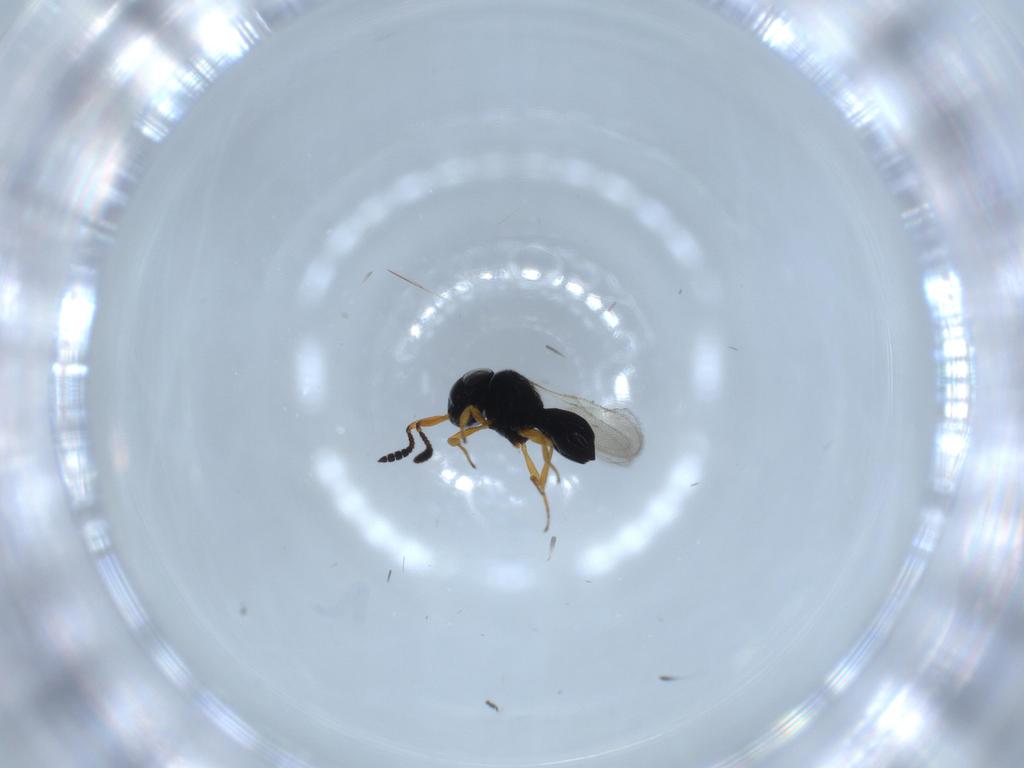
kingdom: Animalia
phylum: Arthropoda
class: Insecta
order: Hymenoptera
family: Scelionidae
